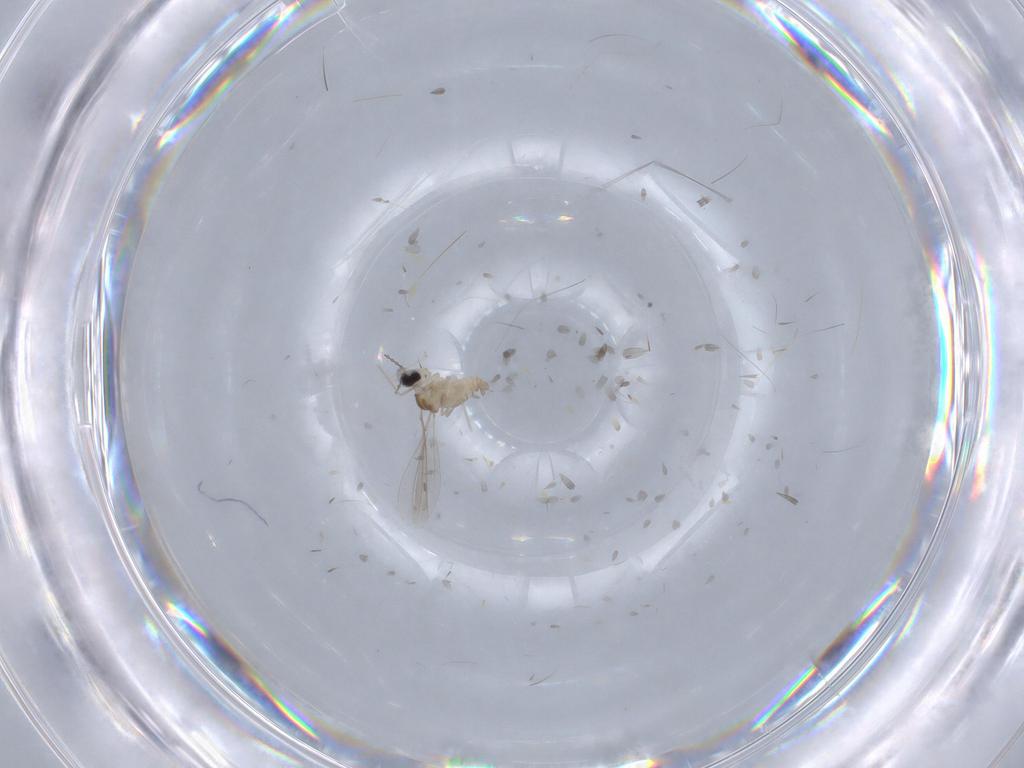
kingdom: Animalia
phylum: Arthropoda
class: Insecta
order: Diptera
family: Cecidomyiidae
